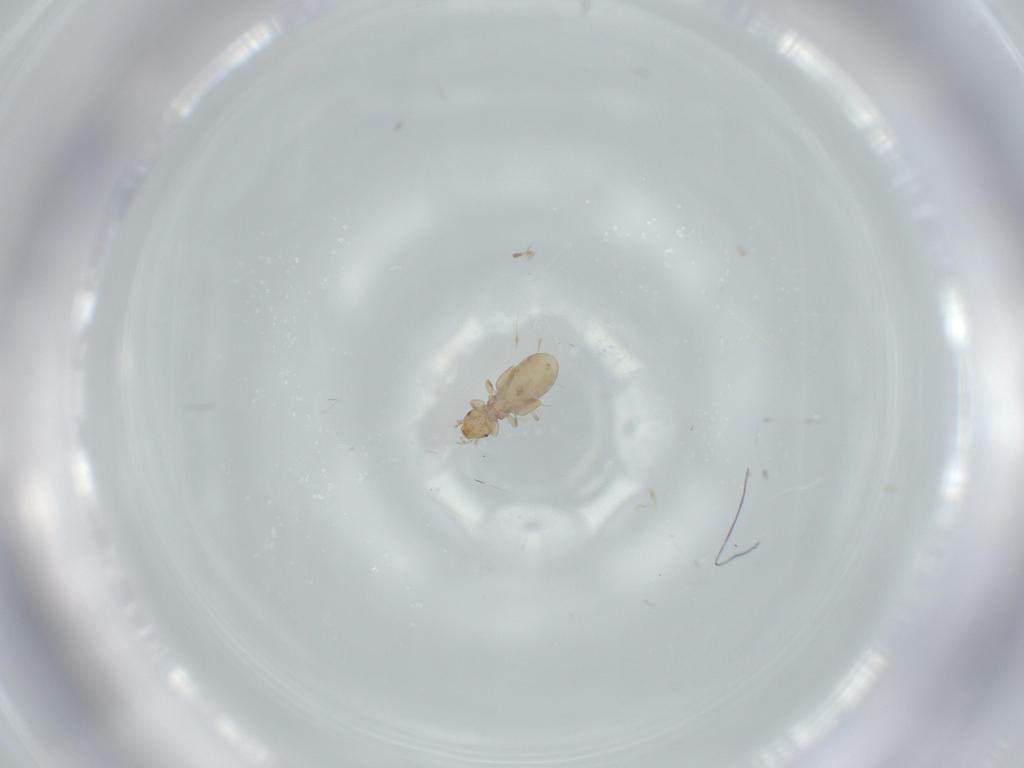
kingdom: Animalia
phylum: Arthropoda
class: Insecta
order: Psocodea
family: Liposcelididae
